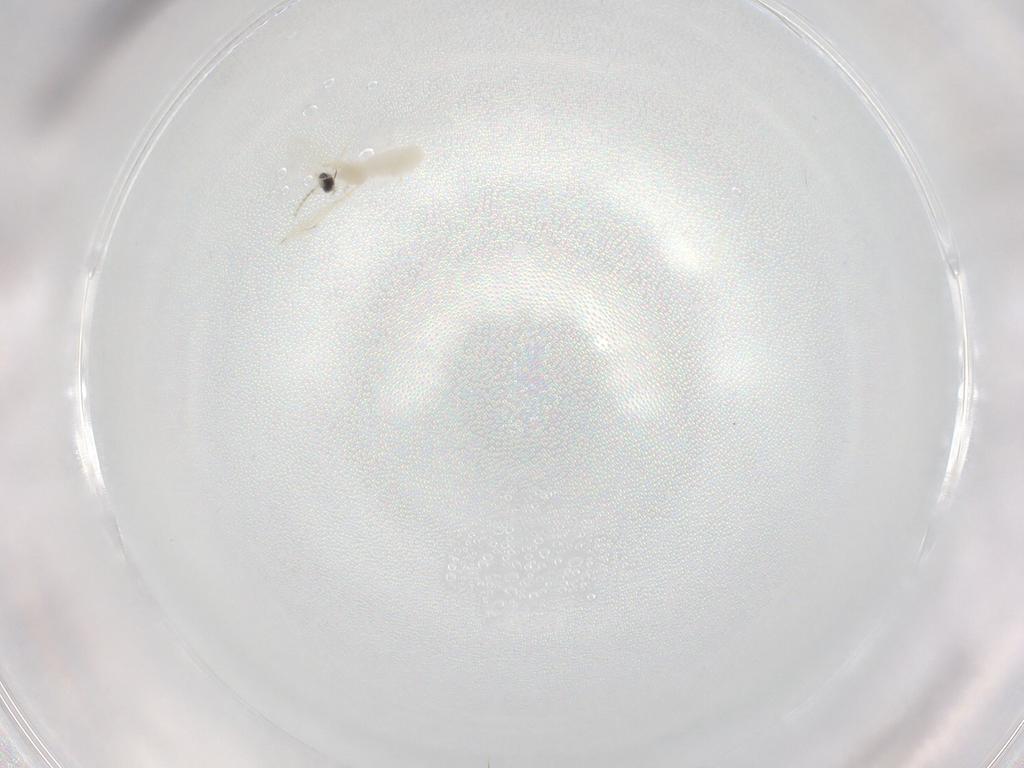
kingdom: Animalia
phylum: Arthropoda
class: Insecta
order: Diptera
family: Chironomidae
